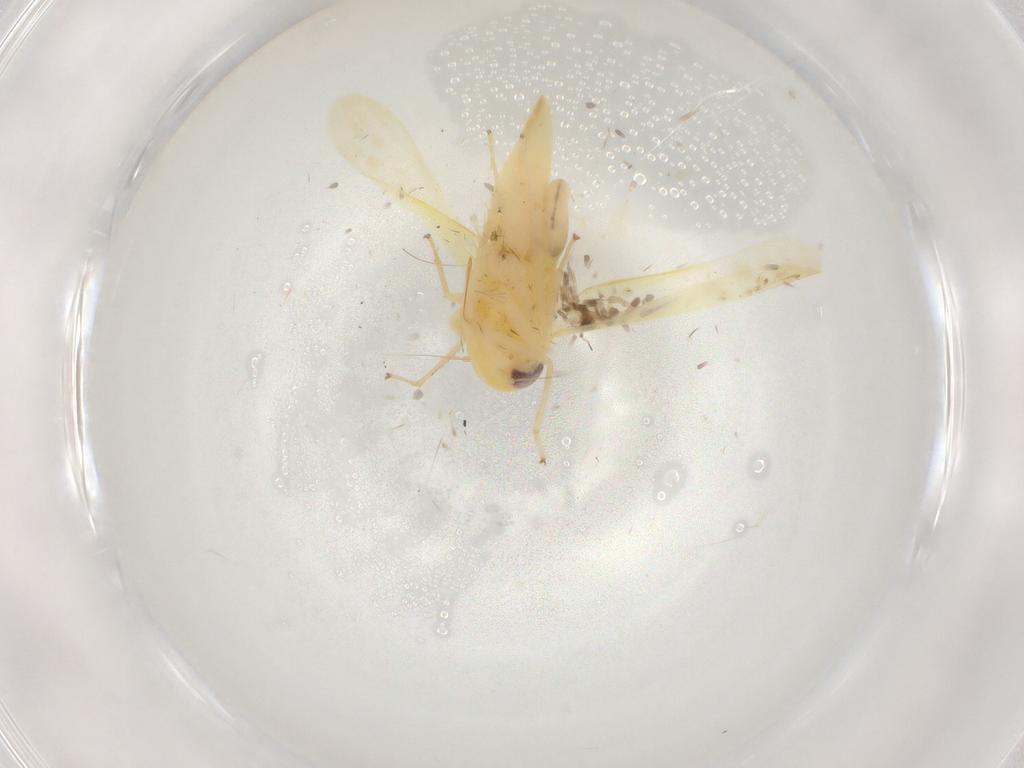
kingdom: Animalia
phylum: Arthropoda
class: Insecta
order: Hemiptera
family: Cicadellidae
